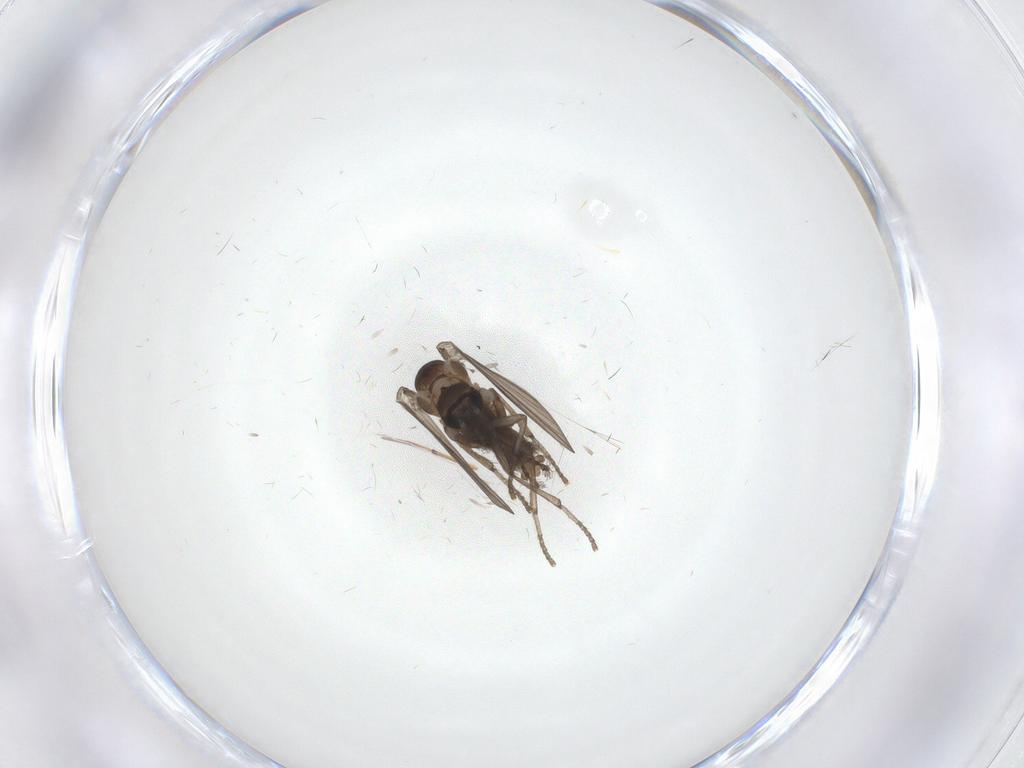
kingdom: Animalia
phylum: Arthropoda
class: Insecta
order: Diptera
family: Psychodidae
